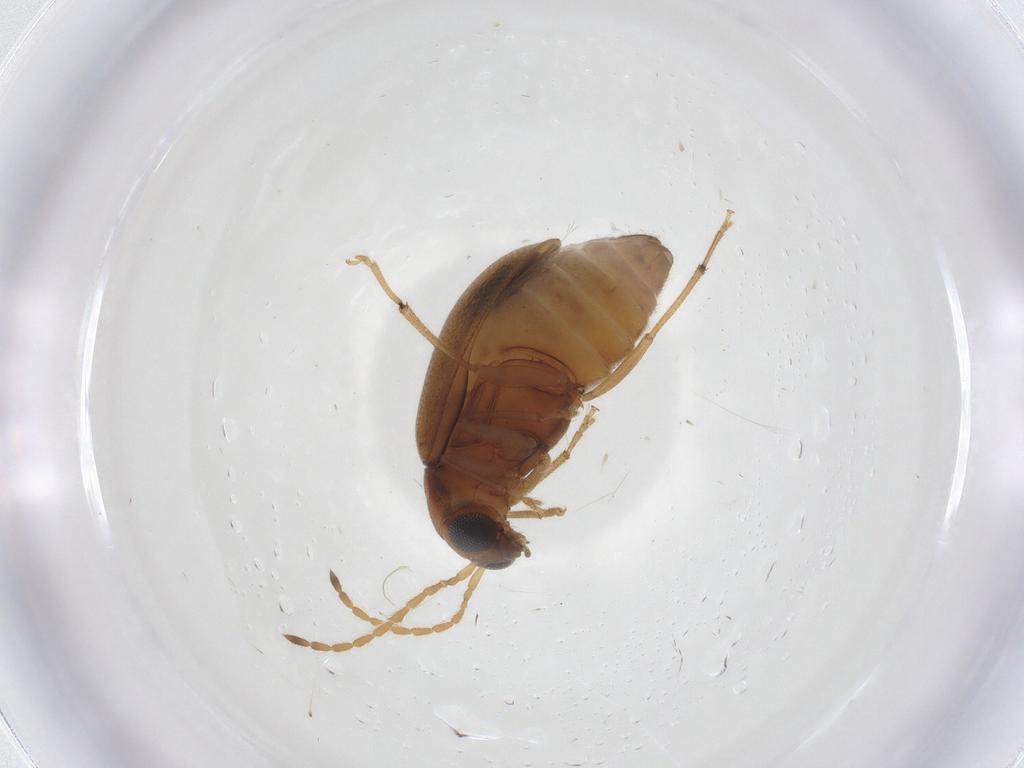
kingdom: Animalia
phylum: Arthropoda
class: Insecta
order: Coleoptera
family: Chrysomelidae
